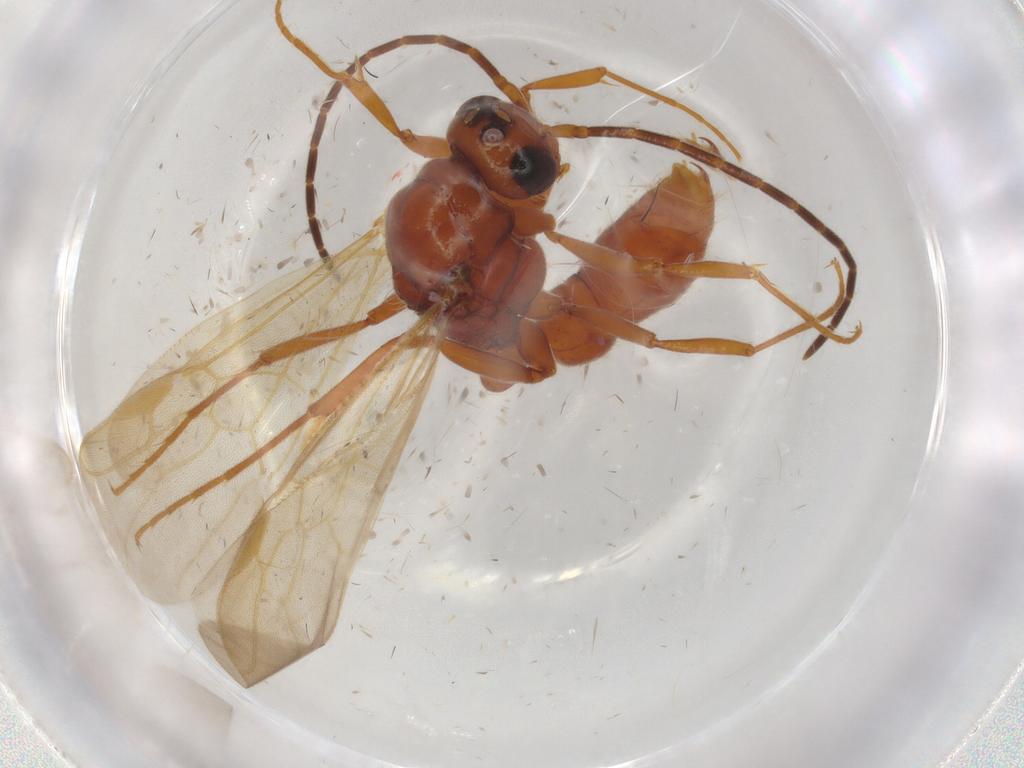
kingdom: Animalia
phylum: Arthropoda
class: Insecta
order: Hymenoptera
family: Formicidae
